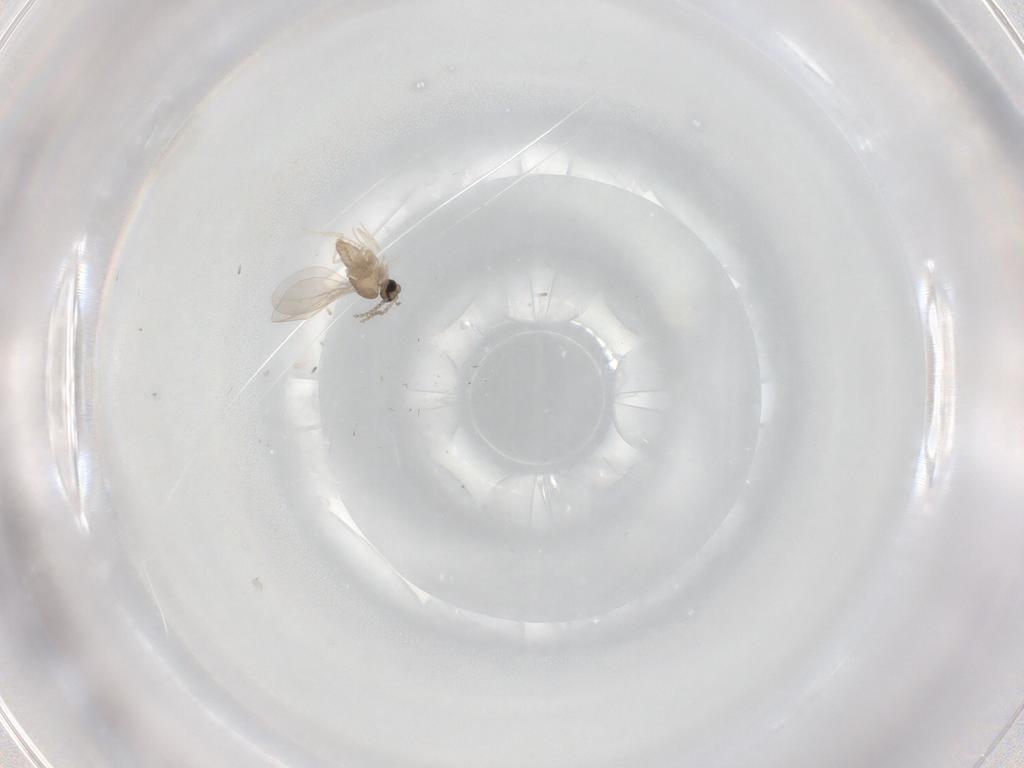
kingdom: Animalia
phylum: Arthropoda
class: Insecta
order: Diptera
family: Cecidomyiidae
